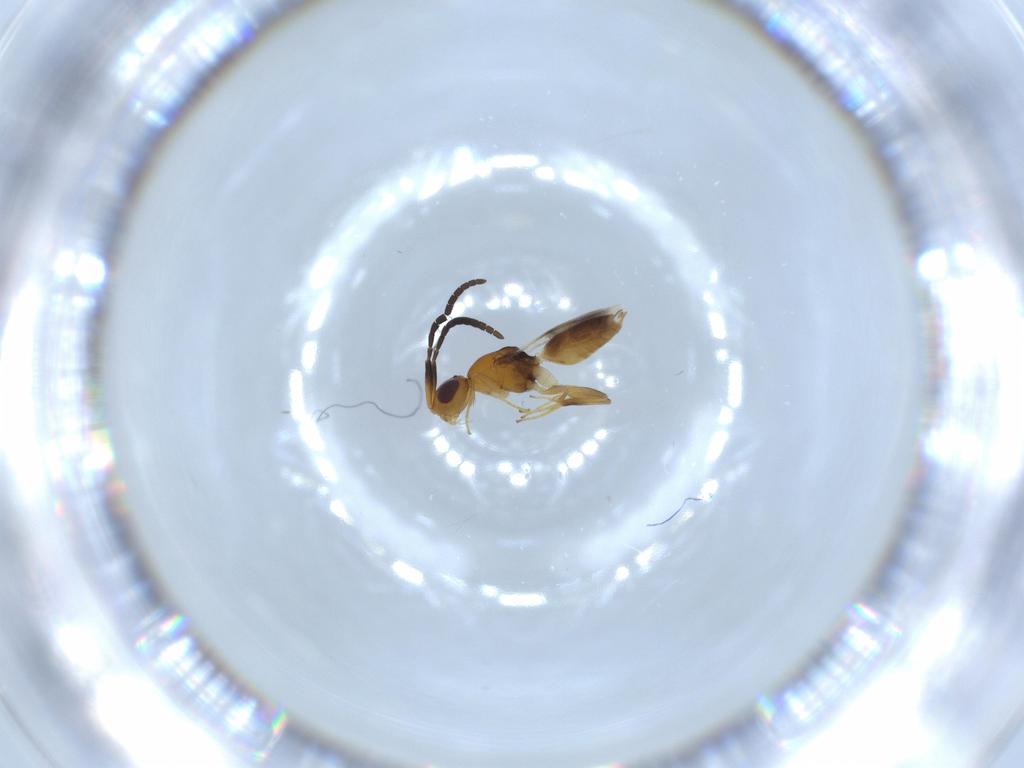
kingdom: Animalia
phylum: Arthropoda
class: Insecta
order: Hymenoptera
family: Megaspilidae
